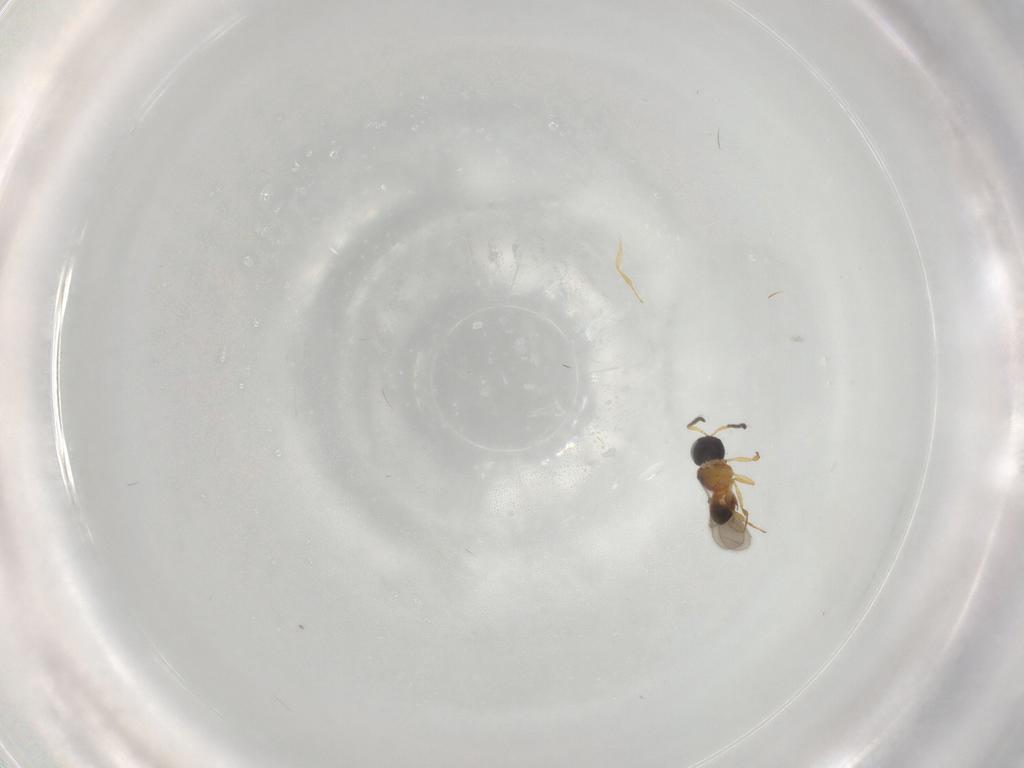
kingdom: Animalia
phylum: Arthropoda
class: Insecta
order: Hymenoptera
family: Scelionidae
